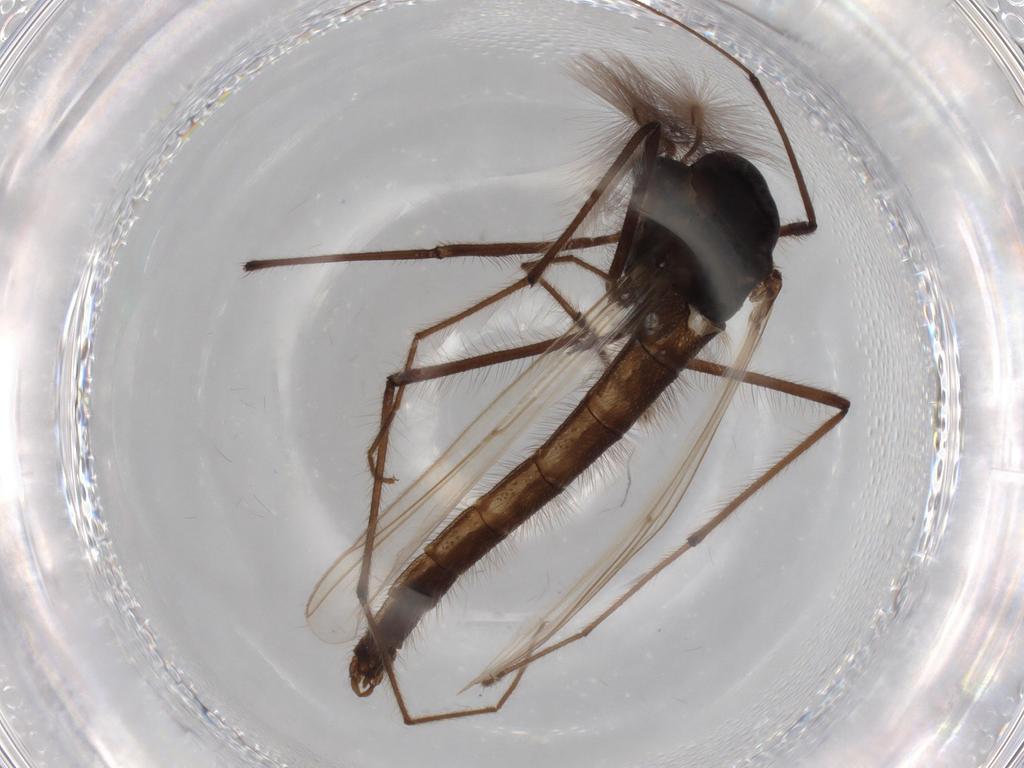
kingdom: Animalia
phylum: Arthropoda
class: Insecta
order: Diptera
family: Chironomidae
